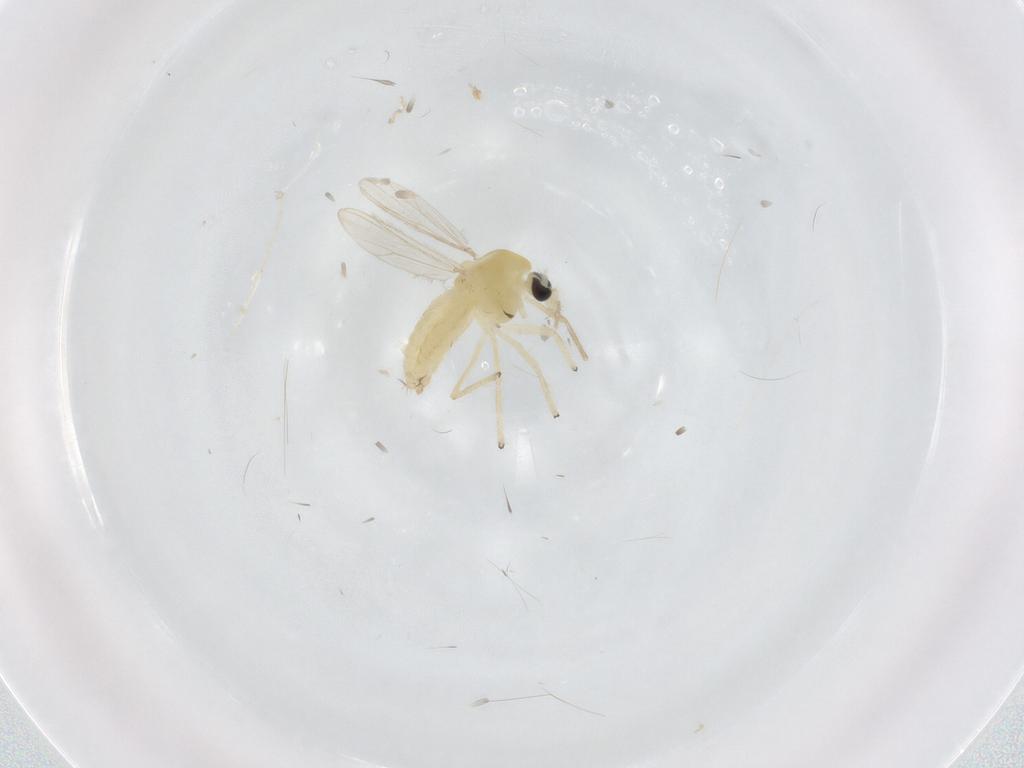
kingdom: Animalia
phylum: Arthropoda
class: Insecta
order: Diptera
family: Chironomidae
